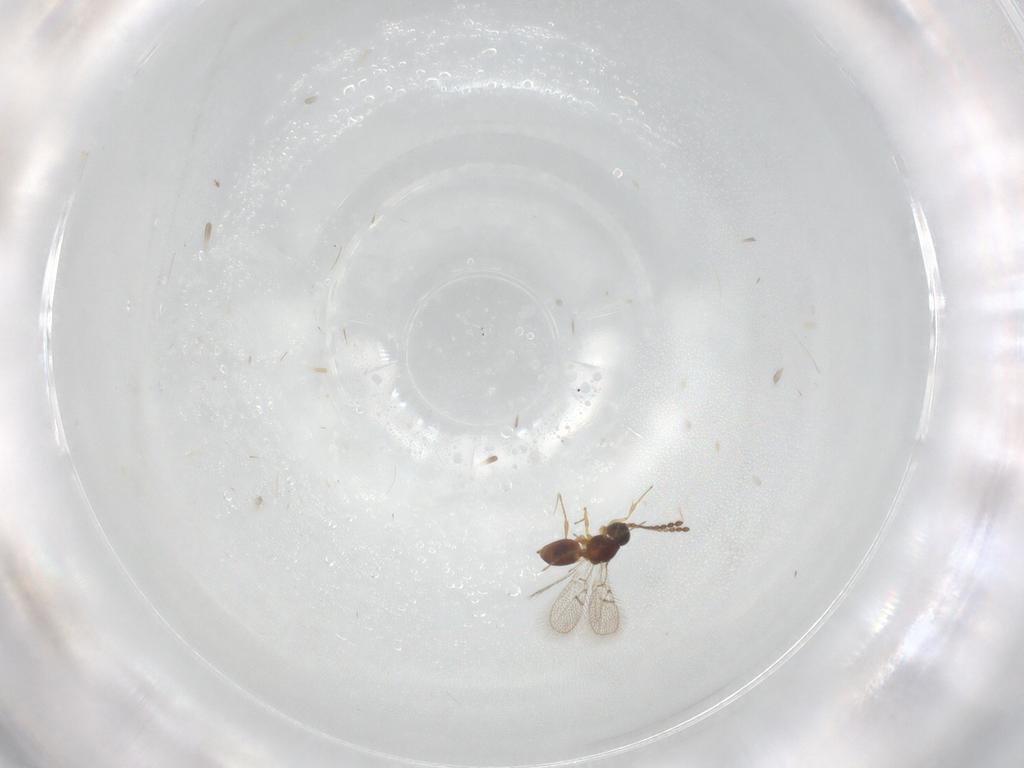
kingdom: Animalia
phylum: Arthropoda
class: Insecta
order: Hymenoptera
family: Figitidae
